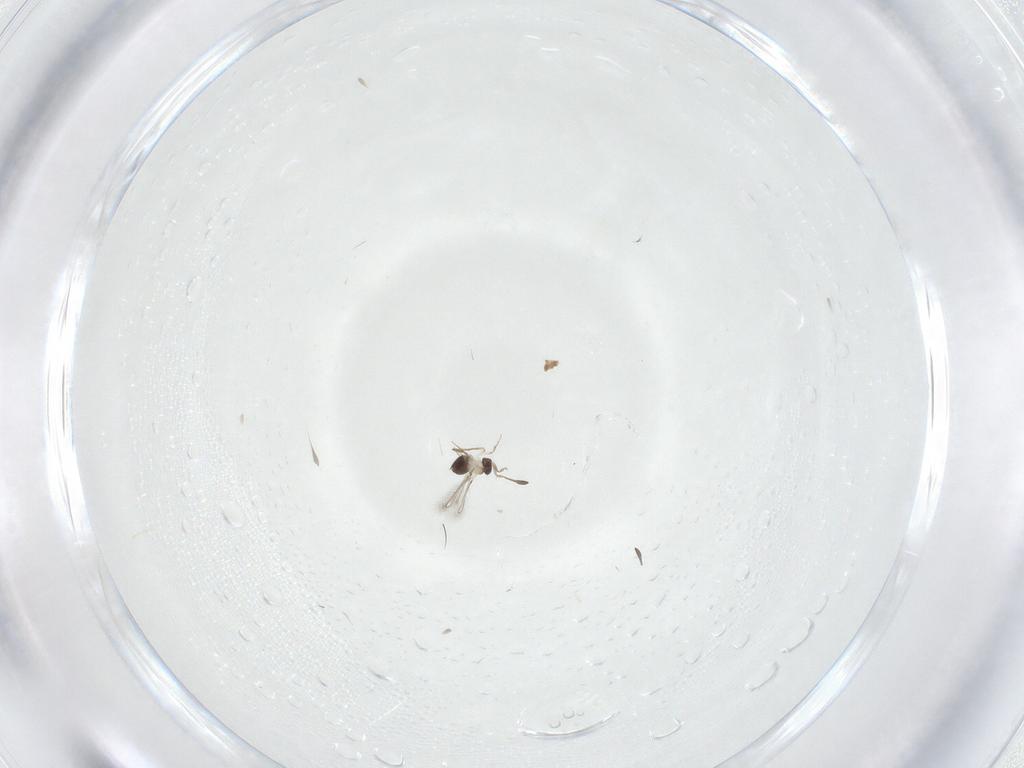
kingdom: Animalia
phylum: Arthropoda
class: Insecta
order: Hymenoptera
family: Mymaridae
